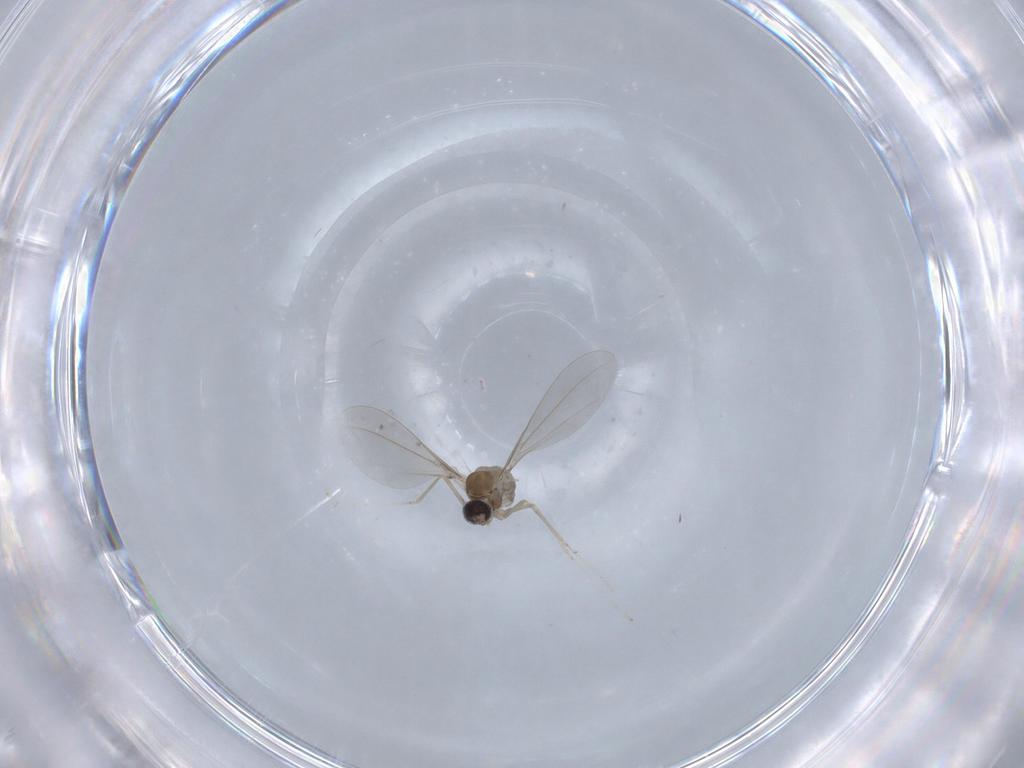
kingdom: Animalia
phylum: Arthropoda
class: Insecta
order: Diptera
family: Cecidomyiidae
